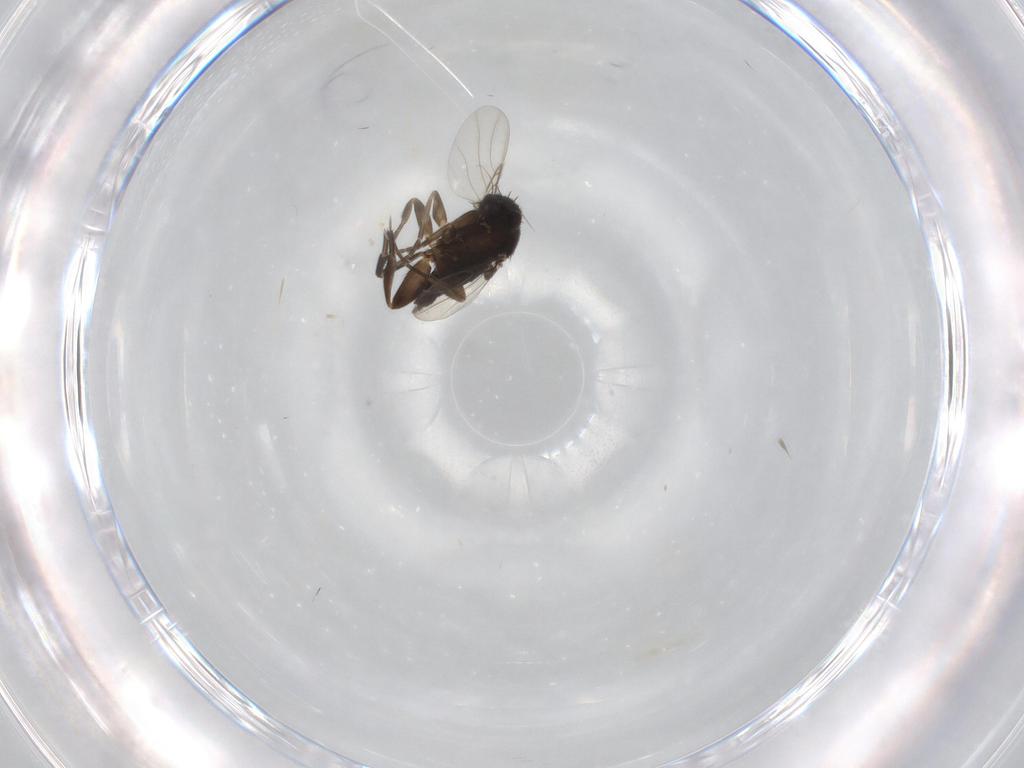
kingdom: Animalia
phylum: Arthropoda
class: Insecta
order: Diptera
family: Phoridae
